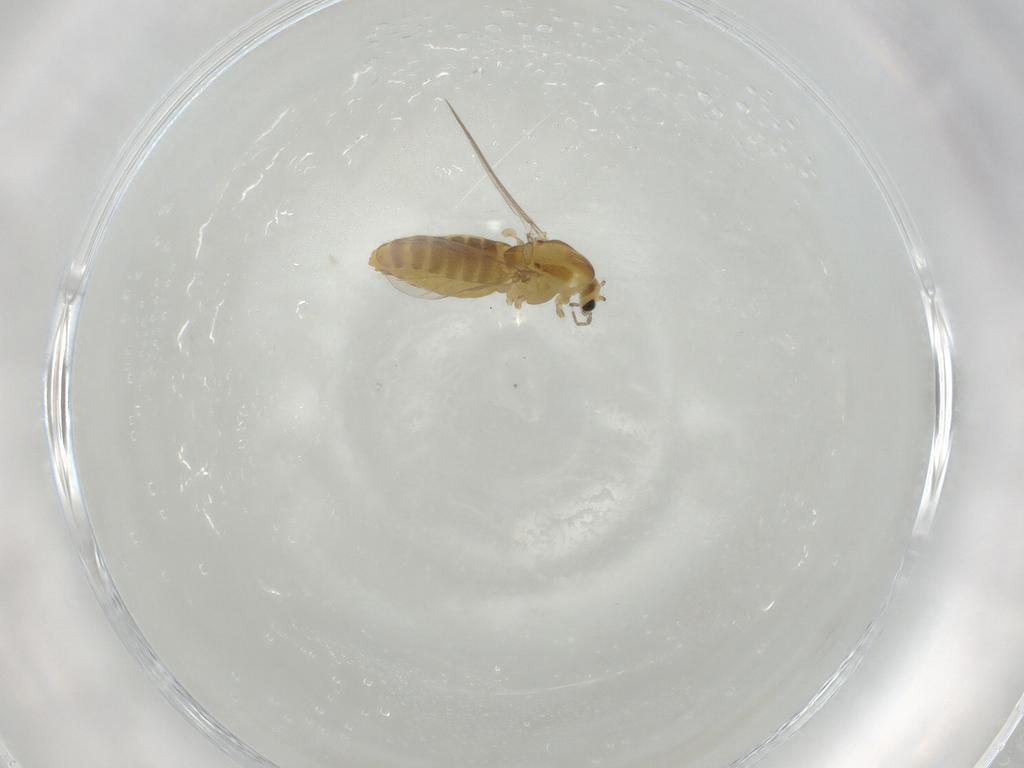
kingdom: Animalia
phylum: Arthropoda
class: Insecta
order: Diptera
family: Chironomidae
